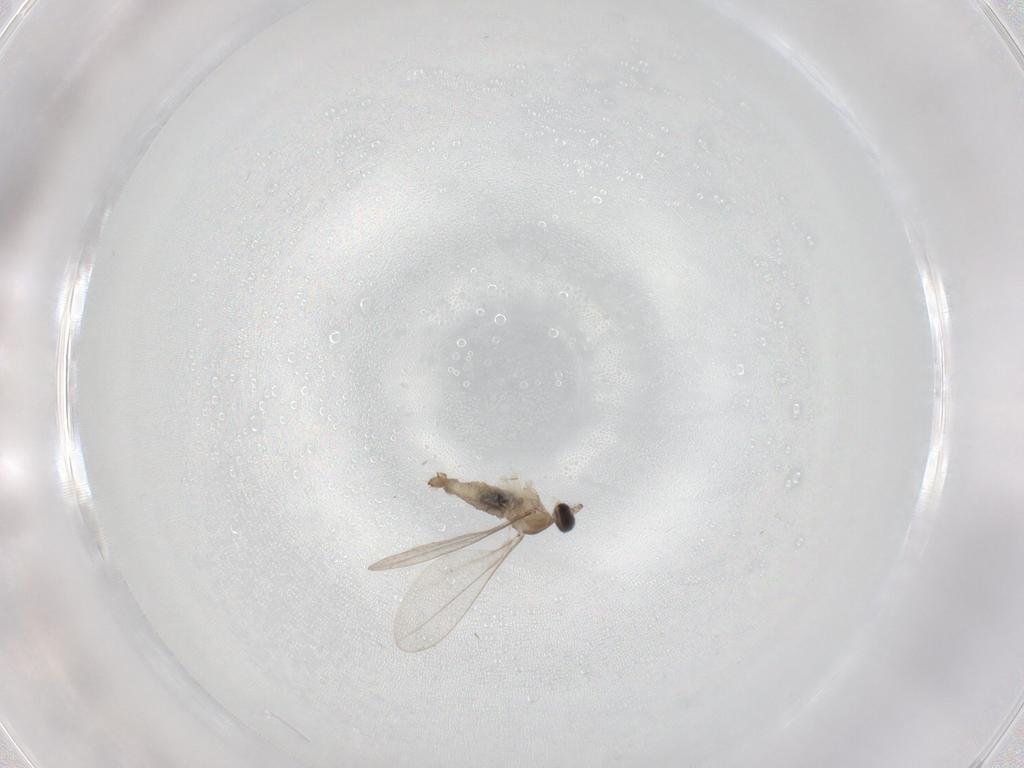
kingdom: Animalia
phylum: Arthropoda
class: Insecta
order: Diptera
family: Cecidomyiidae
